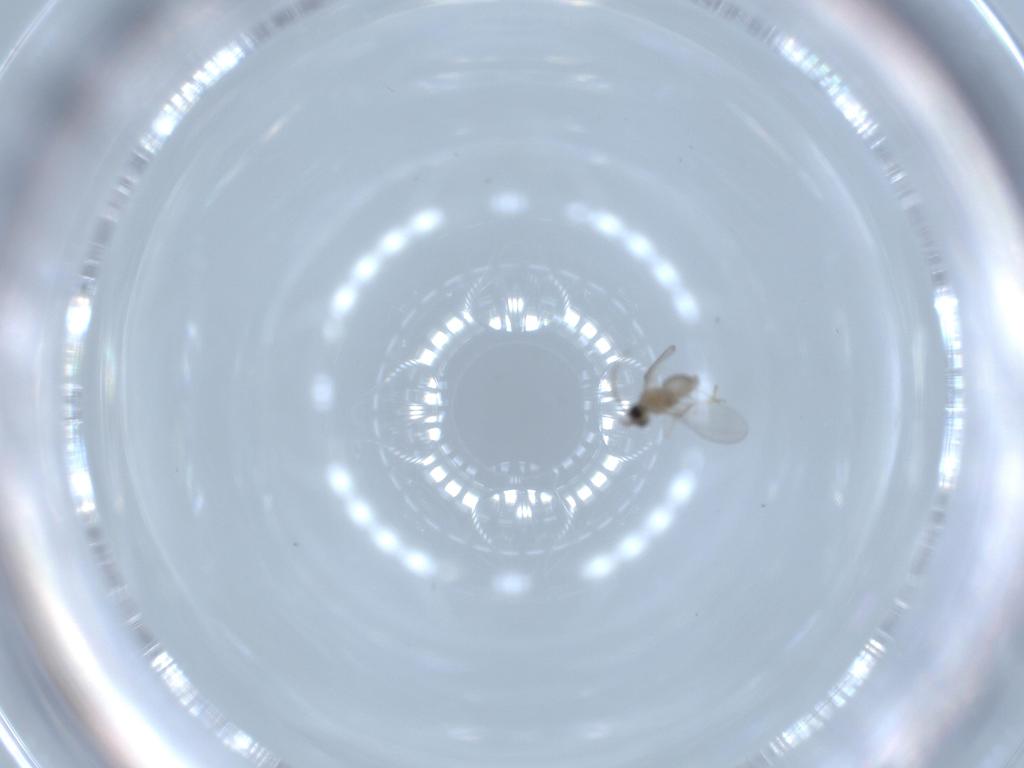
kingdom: Animalia
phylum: Arthropoda
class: Insecta
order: Diptera
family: Cecidomyiidae
